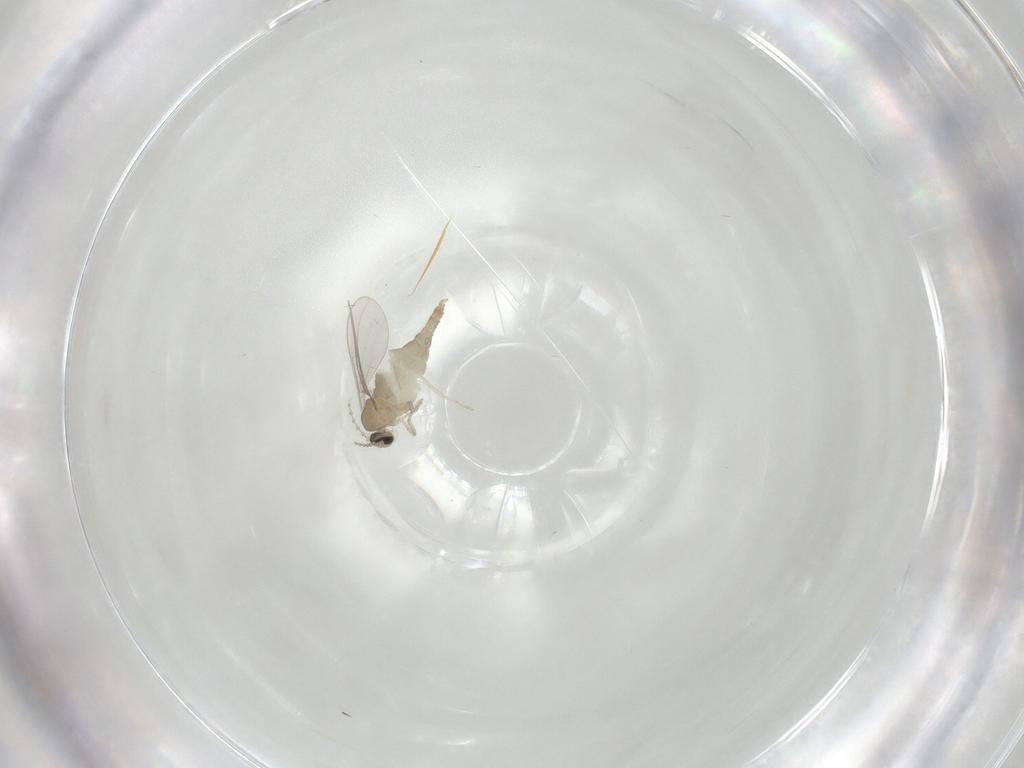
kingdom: Animalia
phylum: Arthropoda
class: Insecta
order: Diptera
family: Cecidomyiidae
